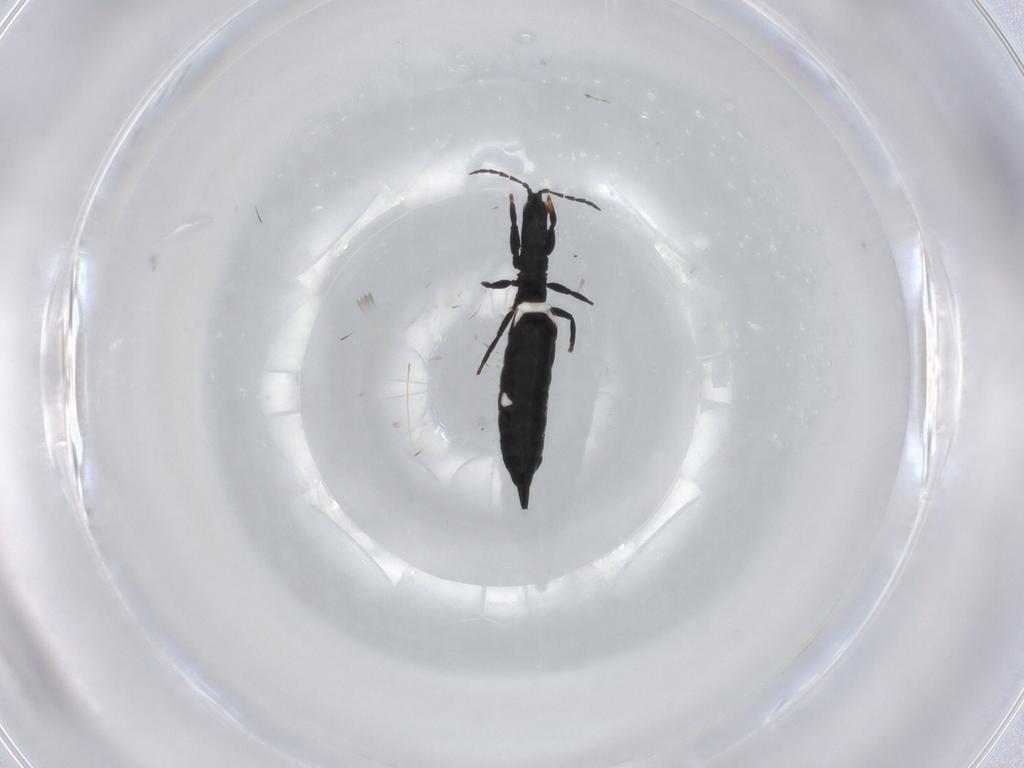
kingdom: Animalia
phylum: Arthropoda
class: Insecta
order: Thysanoptera
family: Phlaeothripidae
